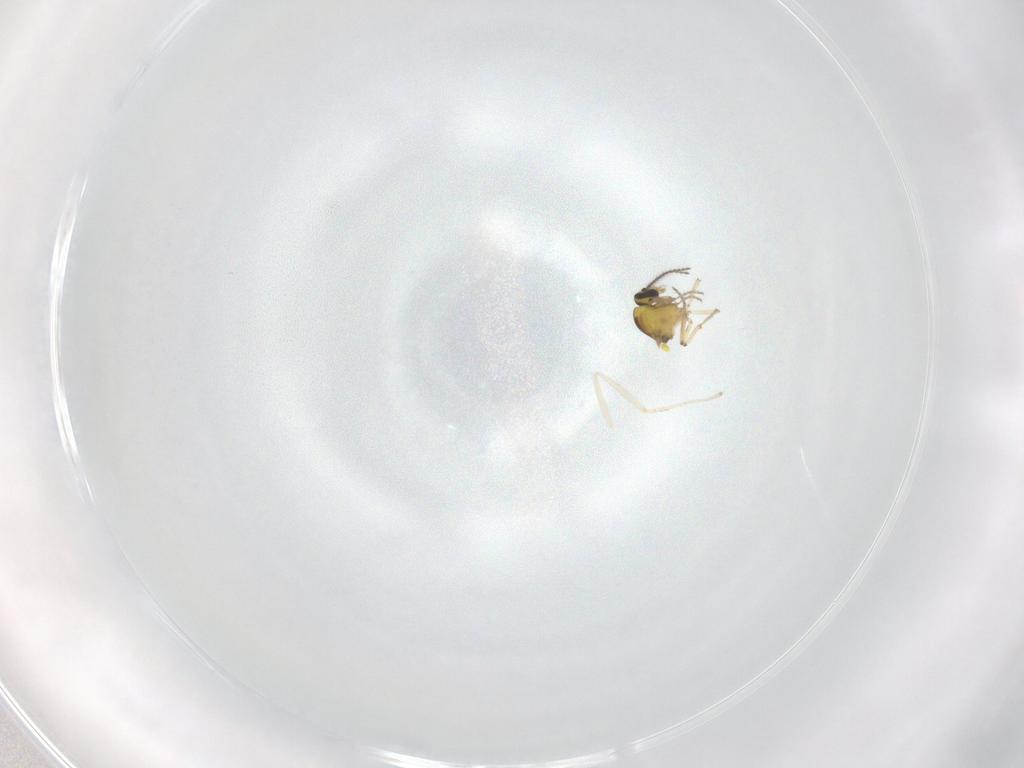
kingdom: Animalia
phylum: Arthropoda
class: Insecta
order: Diptera
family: Ceratopogonidae
